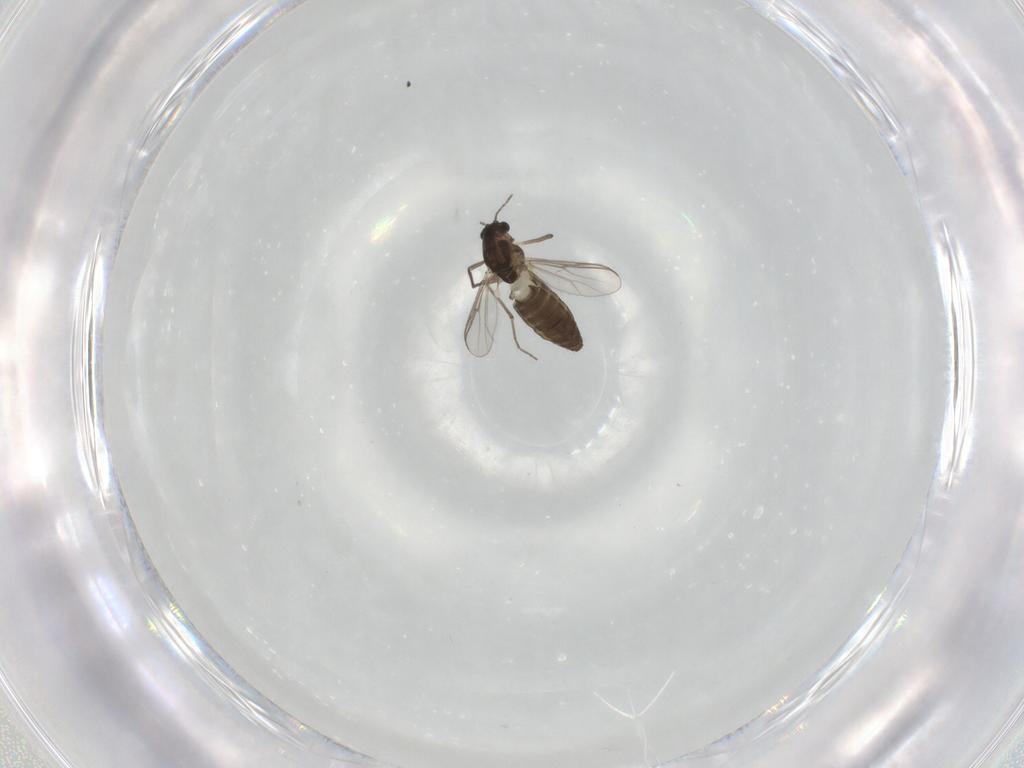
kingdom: Animalia
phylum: Arthropoda
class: Insecta
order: Diptera
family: Chironomidae
